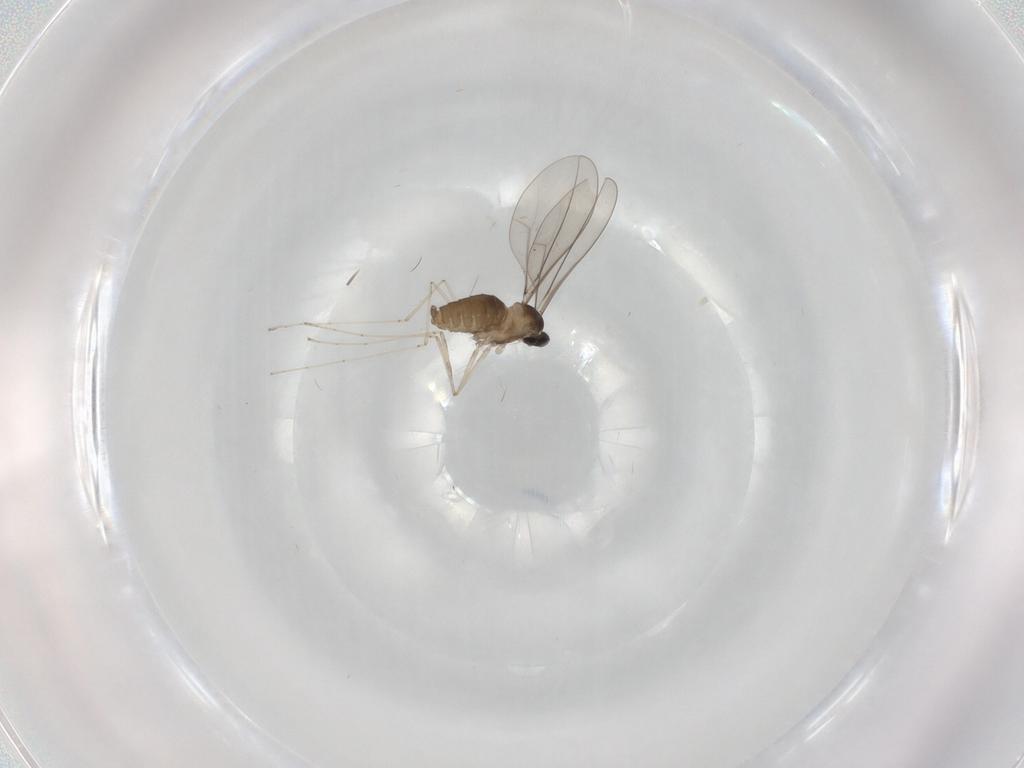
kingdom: Animalia
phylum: Arthropoda
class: Insecta
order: Diptera
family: Cecidomyiidae
